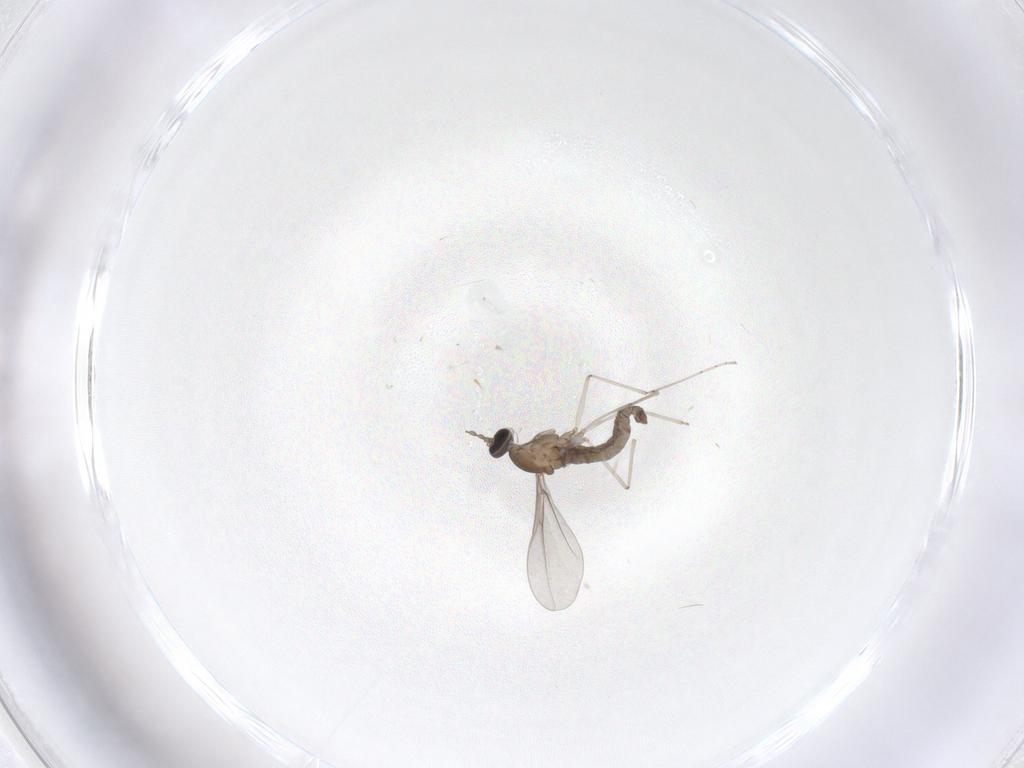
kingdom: Animalia
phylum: Arthropoda
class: Insecta
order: Diptera
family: Cecidomyiidae
